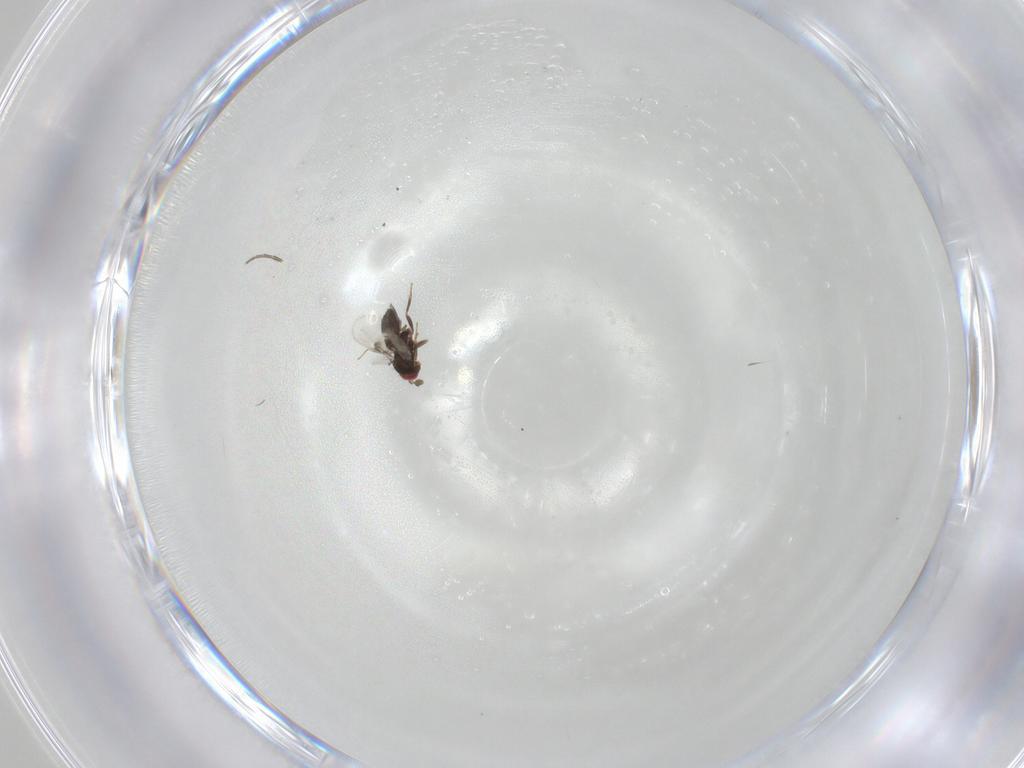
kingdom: Animalia
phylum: Arthropoda
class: Insecta
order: Hymenoptera
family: Trichogrammatidae
